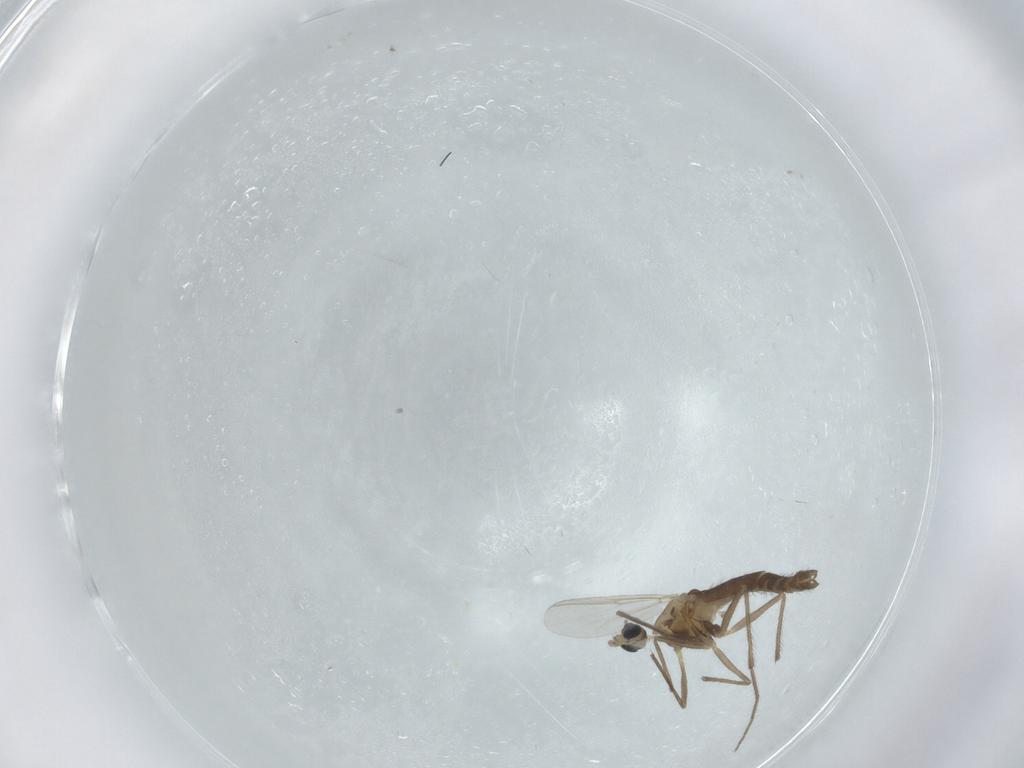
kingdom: Animalia
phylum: Arthropoda
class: Insecta
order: Diptera
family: Chironomidae
